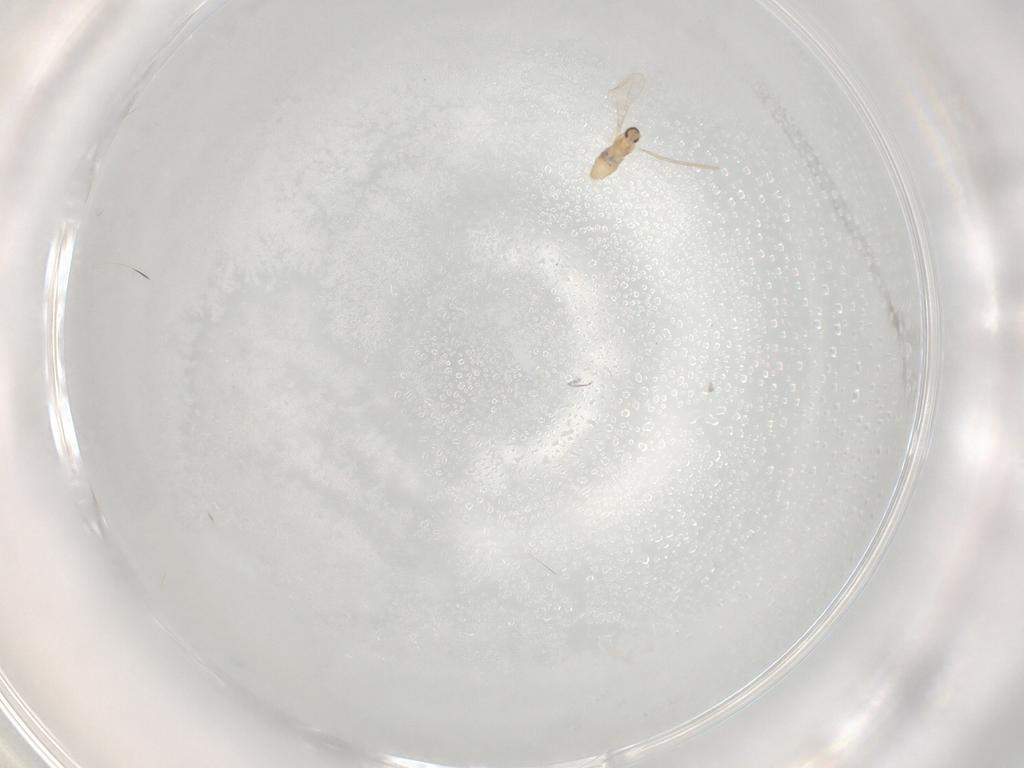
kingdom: Animalia
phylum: Arthropoda
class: Insecta
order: Diptera
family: Cecidomyiidae
